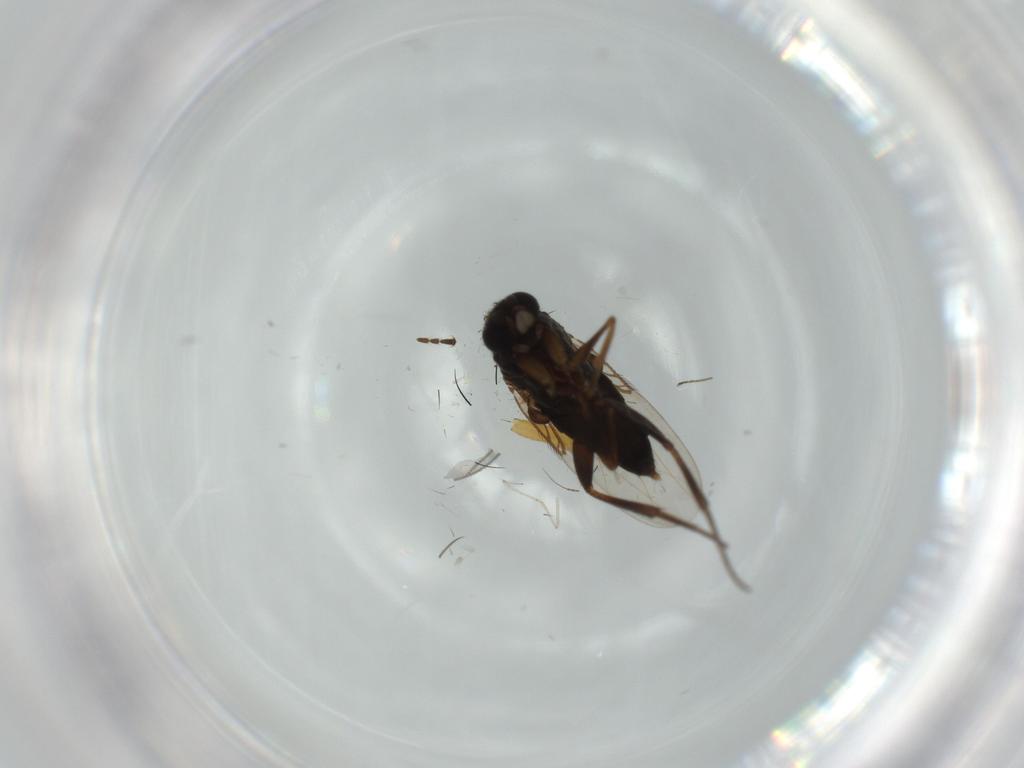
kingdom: Animalia
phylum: Arthropoda
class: Insecta
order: Diptera
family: Phoridae
